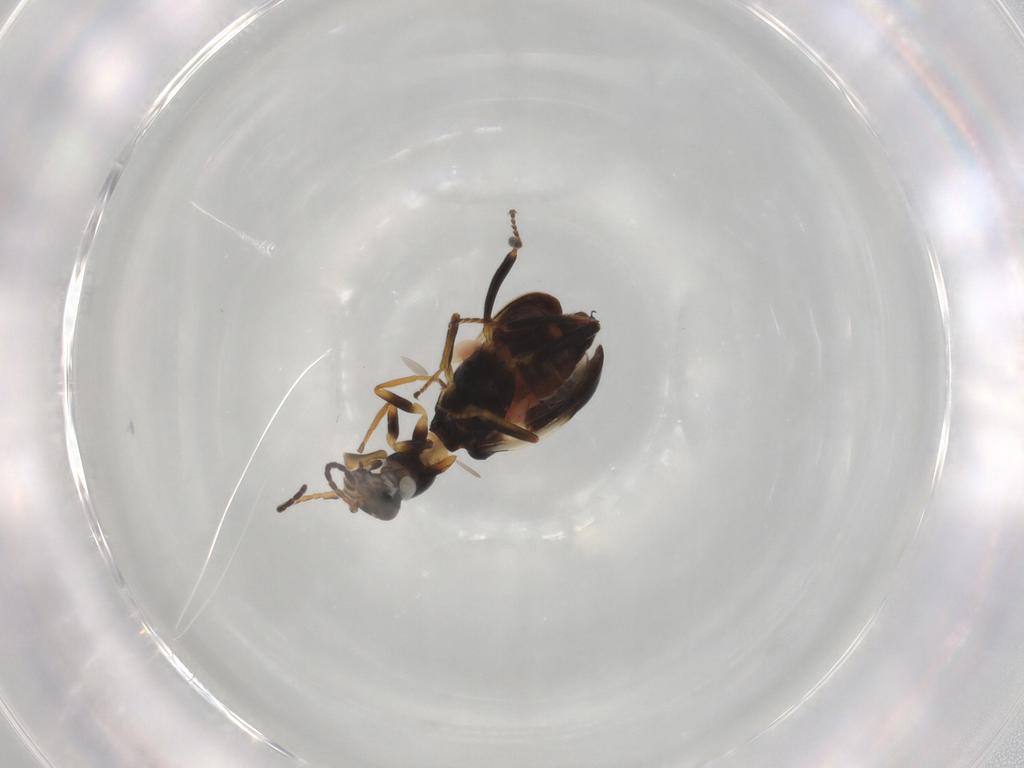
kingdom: Animalia
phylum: Arthropoda
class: Insecta
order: Coleoptera
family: Melyridae
